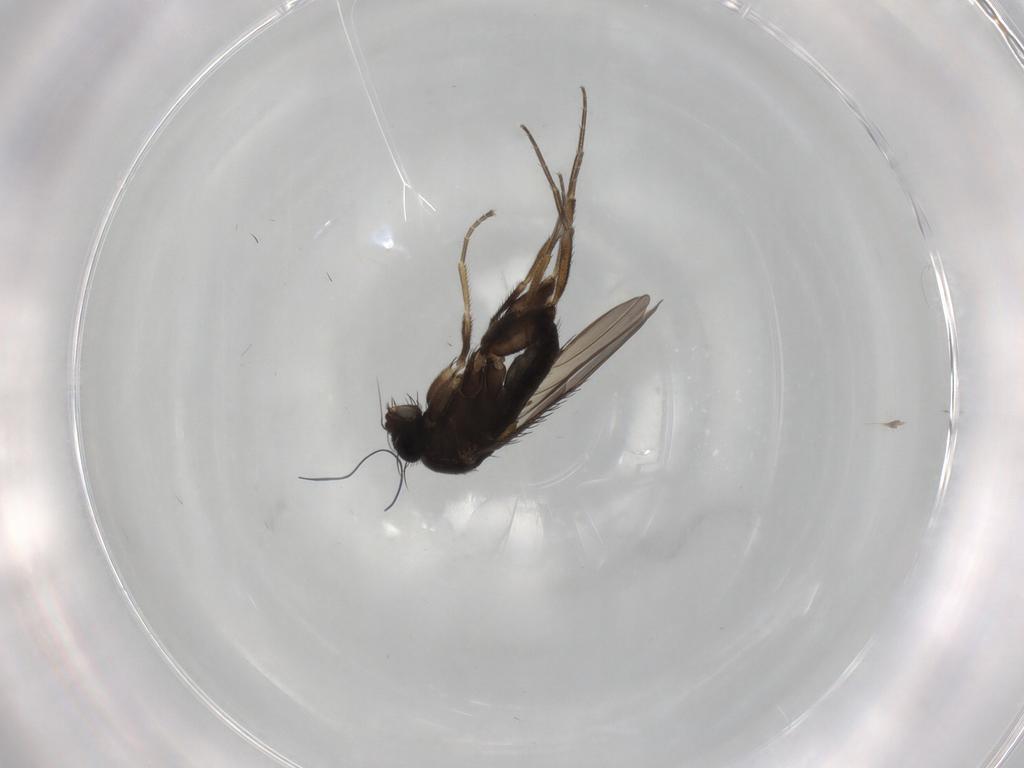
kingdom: Animalia
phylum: Arthropoda
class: Insecta
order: Diptera
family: Phoridae
